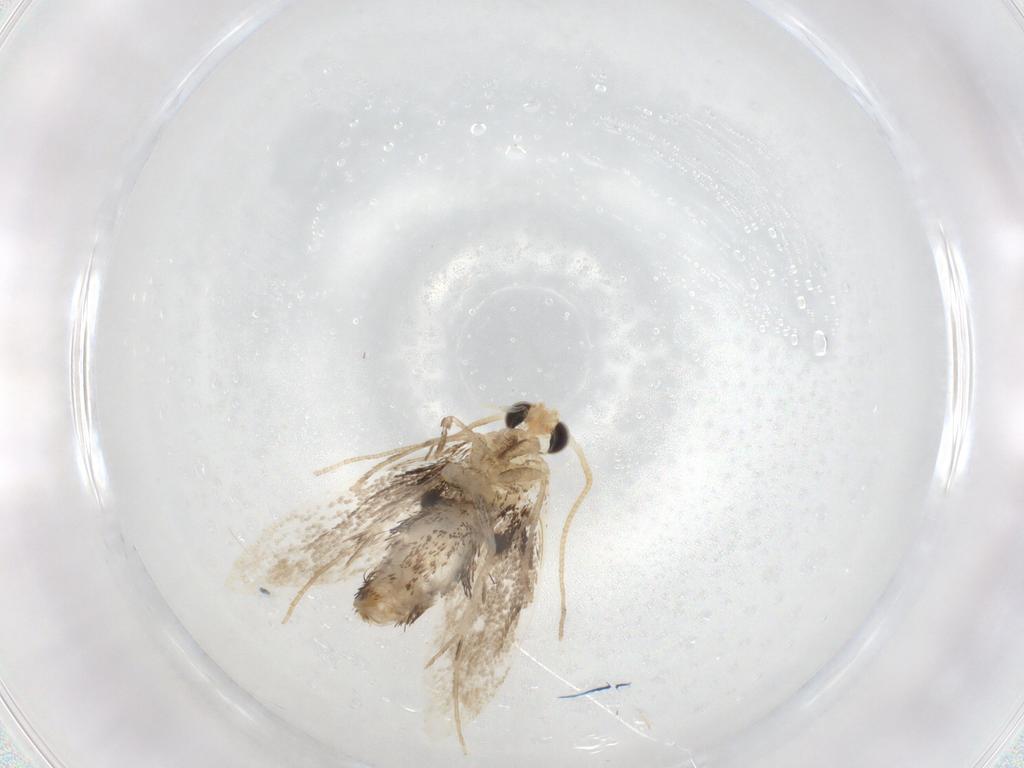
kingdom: Animalia
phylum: Arthropoda
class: Insecta
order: Lepidoptera
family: Dryadaulidae
